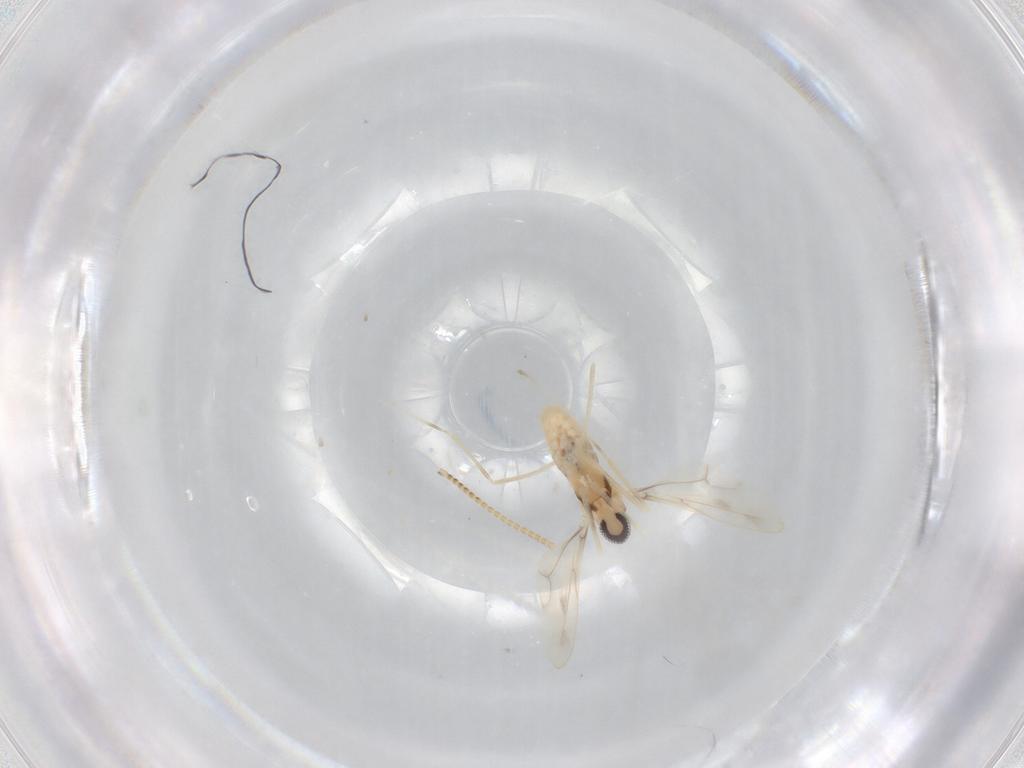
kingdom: Animalia
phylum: Arthropoda
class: Insecta
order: Diptera
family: Cecidomyiidae
